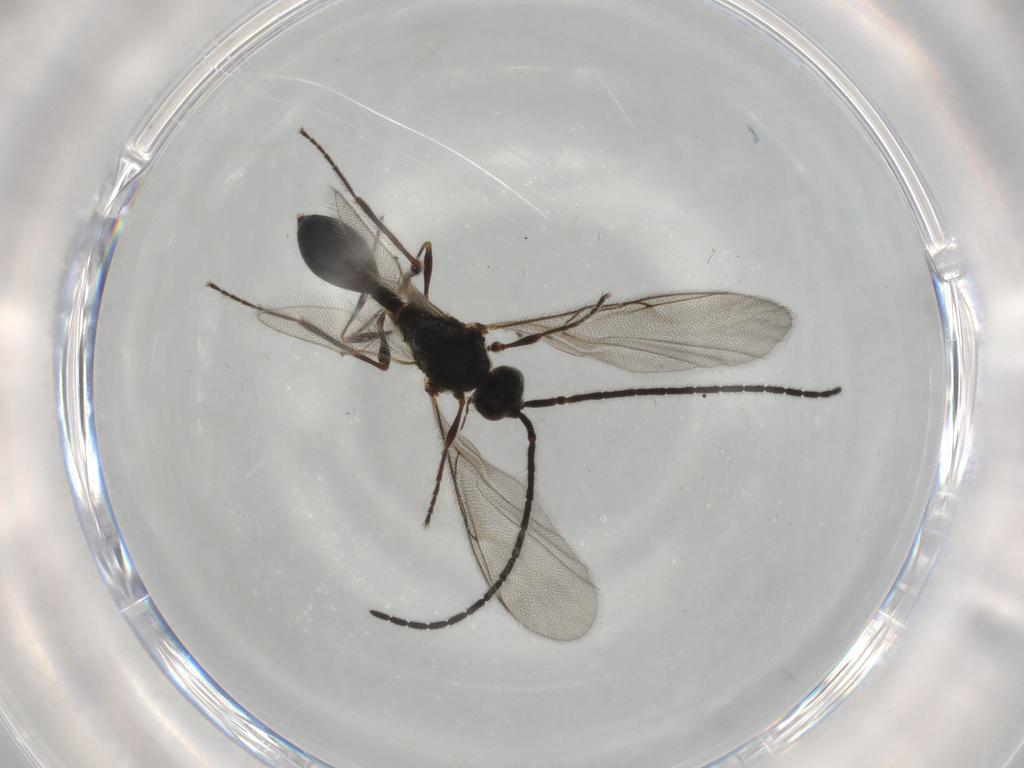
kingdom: Animalia
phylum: Arthropoda
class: Insecta
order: Hymenoptera
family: Diapriidae
